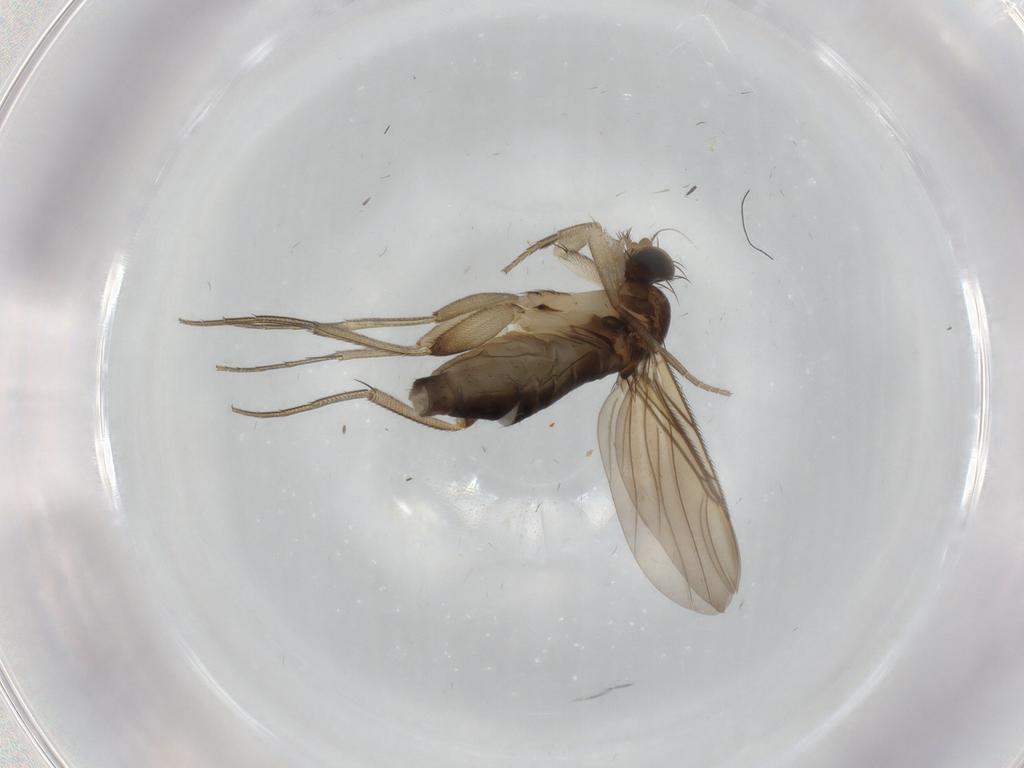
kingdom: Animalia
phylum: Arthropoda
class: Insecta
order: Diptera
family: Phoridae
